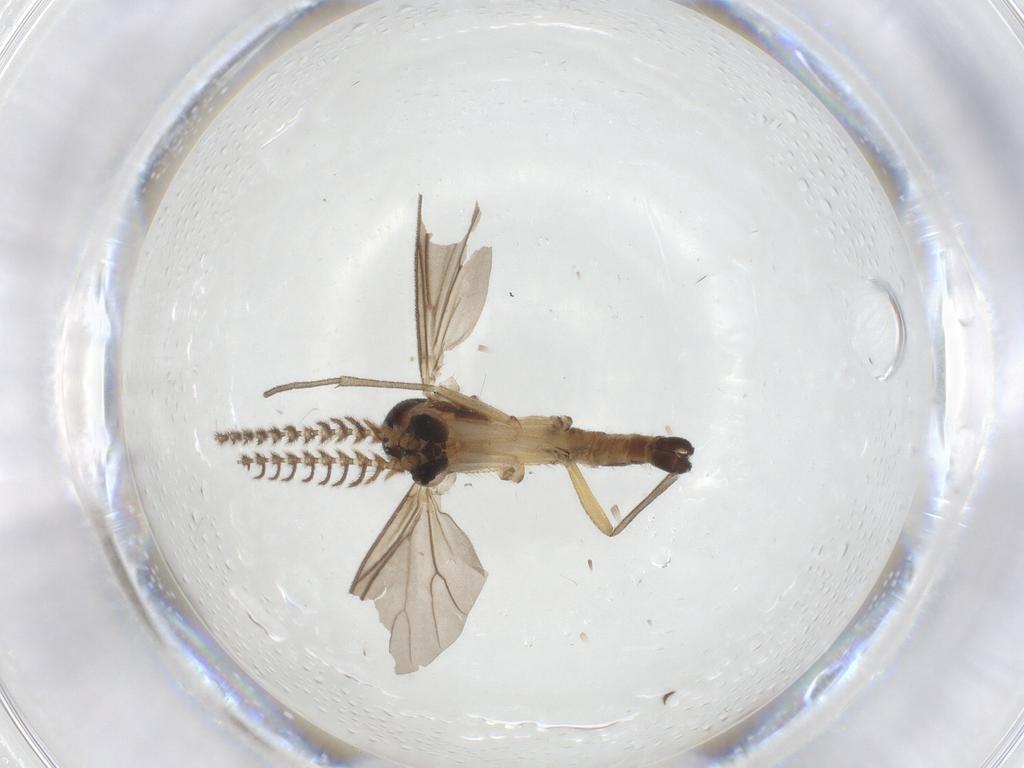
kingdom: Animalia
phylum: Arthropoda
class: Insecta
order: Diptera
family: Mycetophilidae
